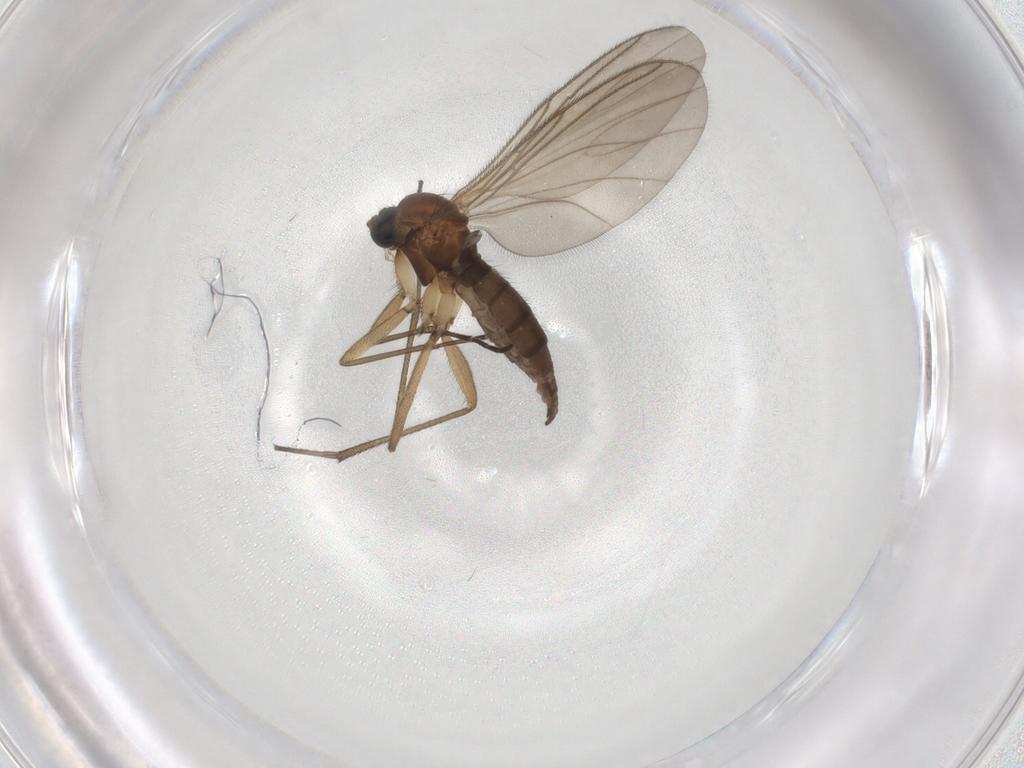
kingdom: Animalia
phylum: Arthropoda
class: Insecta
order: Diptera
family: Sciaridae
